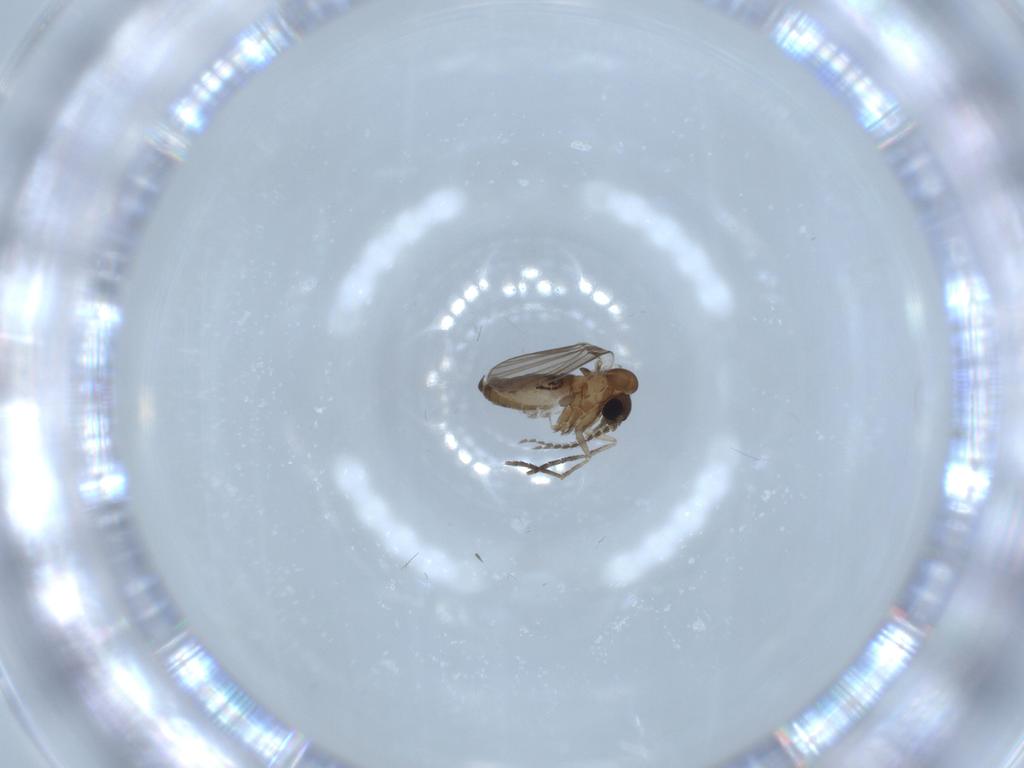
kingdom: Animalia
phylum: Arthropoda
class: Insecta
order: Diptera
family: Psychodidae
